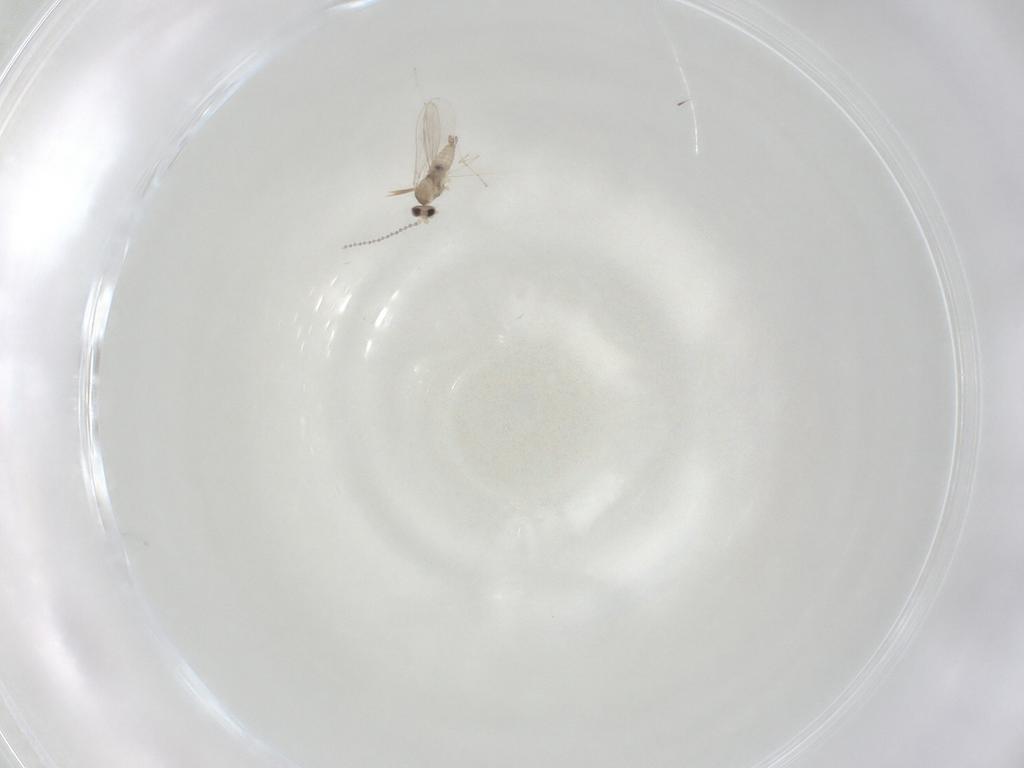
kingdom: Animalia
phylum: Arthropoda
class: Insecta
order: Diptera
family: Cecidomyiidae
